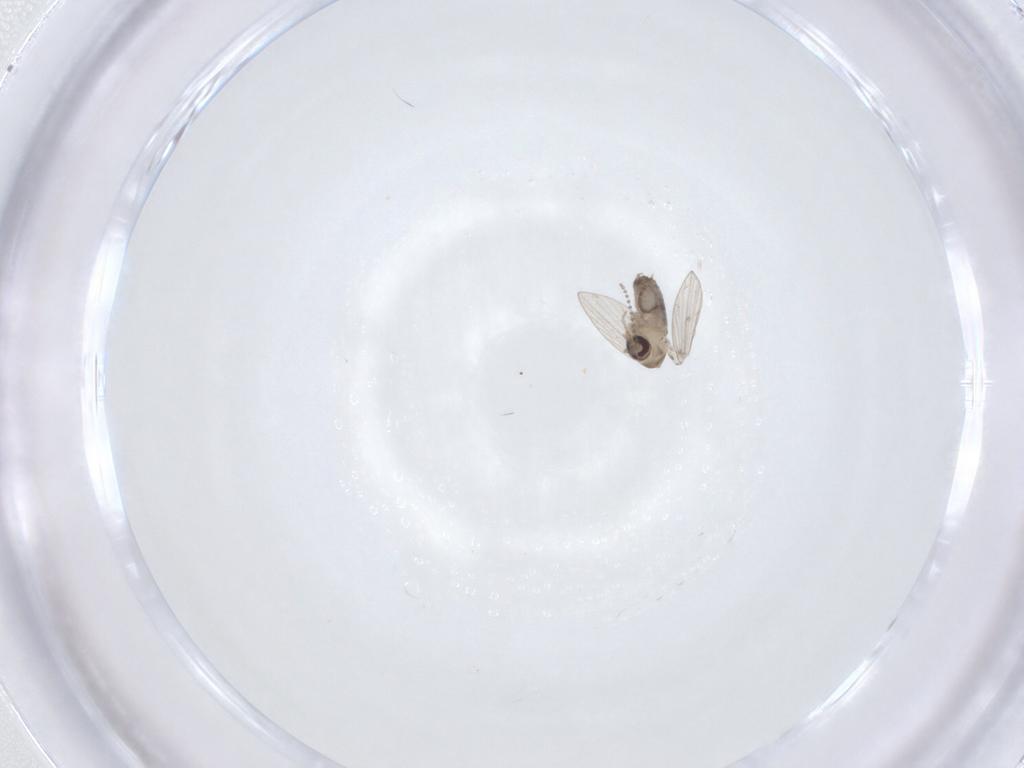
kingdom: Animalia
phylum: Arthropoda
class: Insecta
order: Diptera
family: Psychodidae
